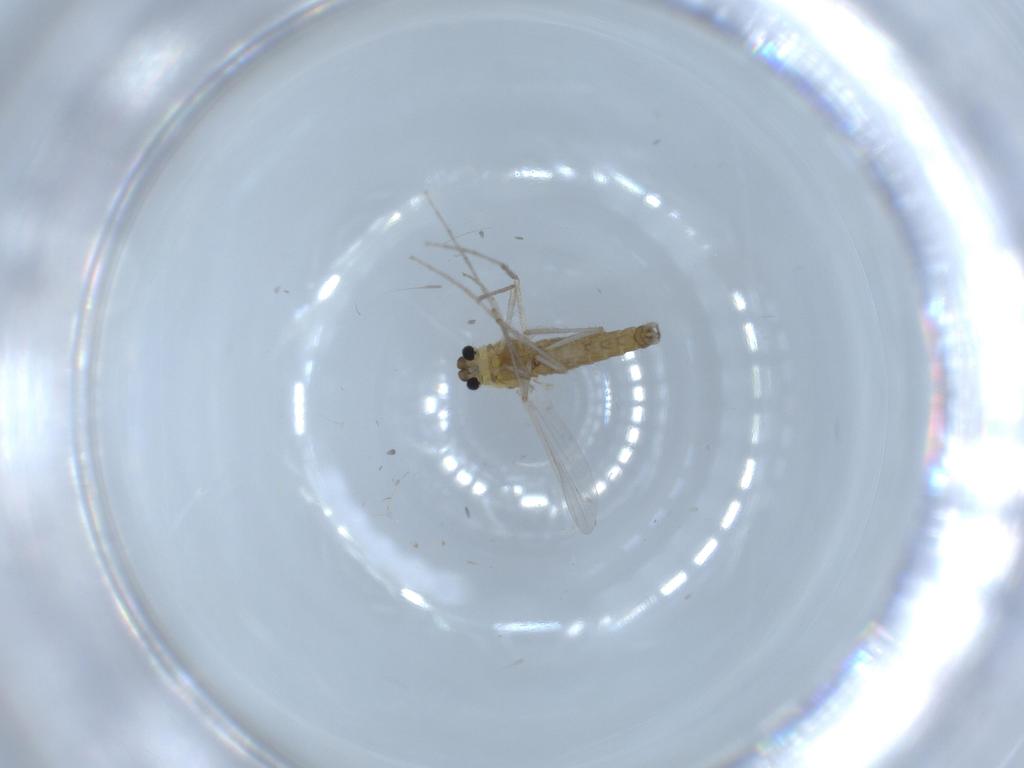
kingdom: Animalia
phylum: Arthropoda
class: Insecta
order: Diptera
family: Chironomidae
